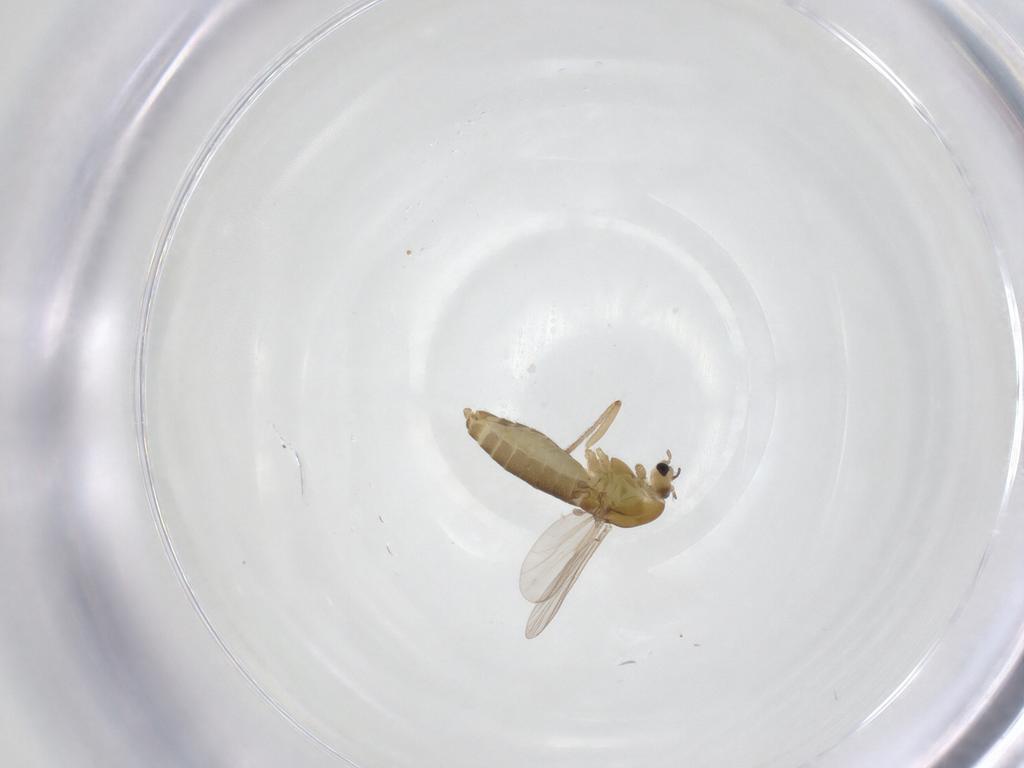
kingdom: Animalia
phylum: Arthropoda
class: Insecta
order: Diptera
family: Chironomidae
